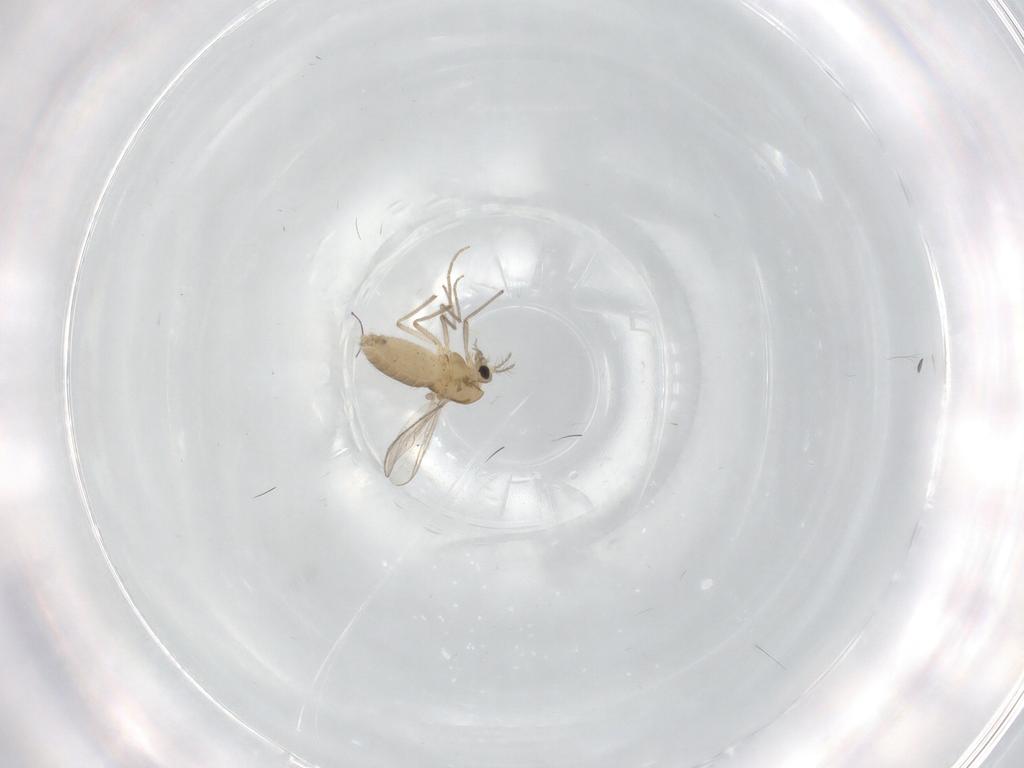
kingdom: Animalia
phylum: Arthropoda
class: Insecta
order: Diptera
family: Chironomidae
